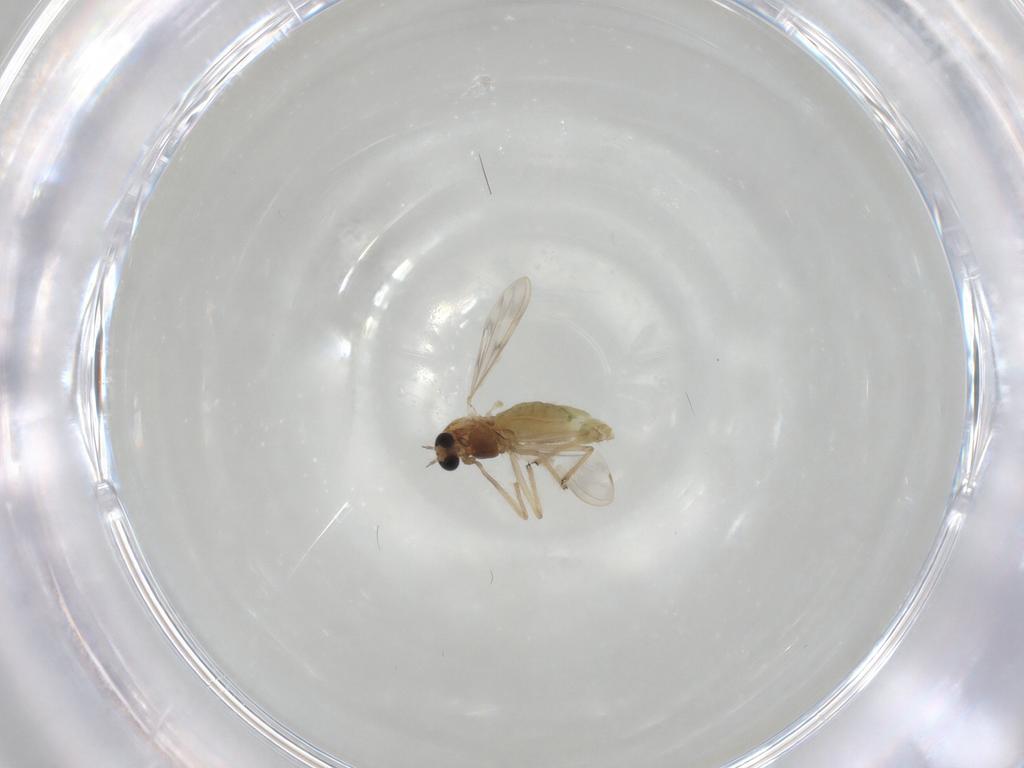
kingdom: Animalia
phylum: Arthropoda
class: Insecta
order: Diptera
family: Chironomidae
